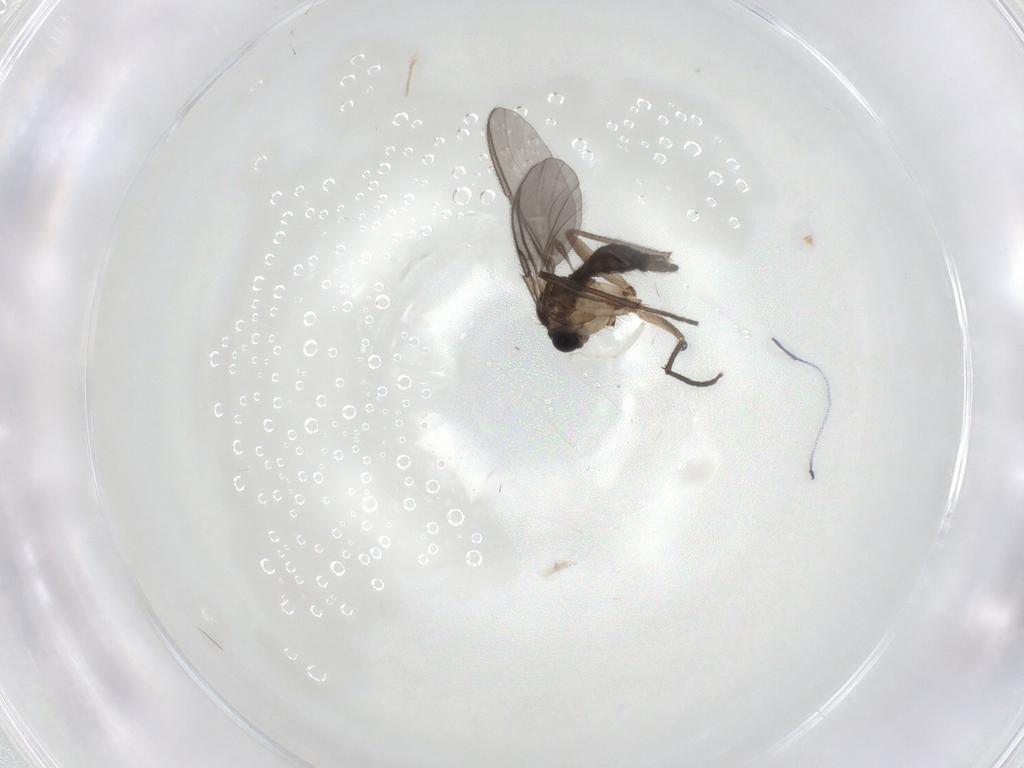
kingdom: Animalia
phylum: Arthropoda
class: Insecta
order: Diptera
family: Sciaridae
